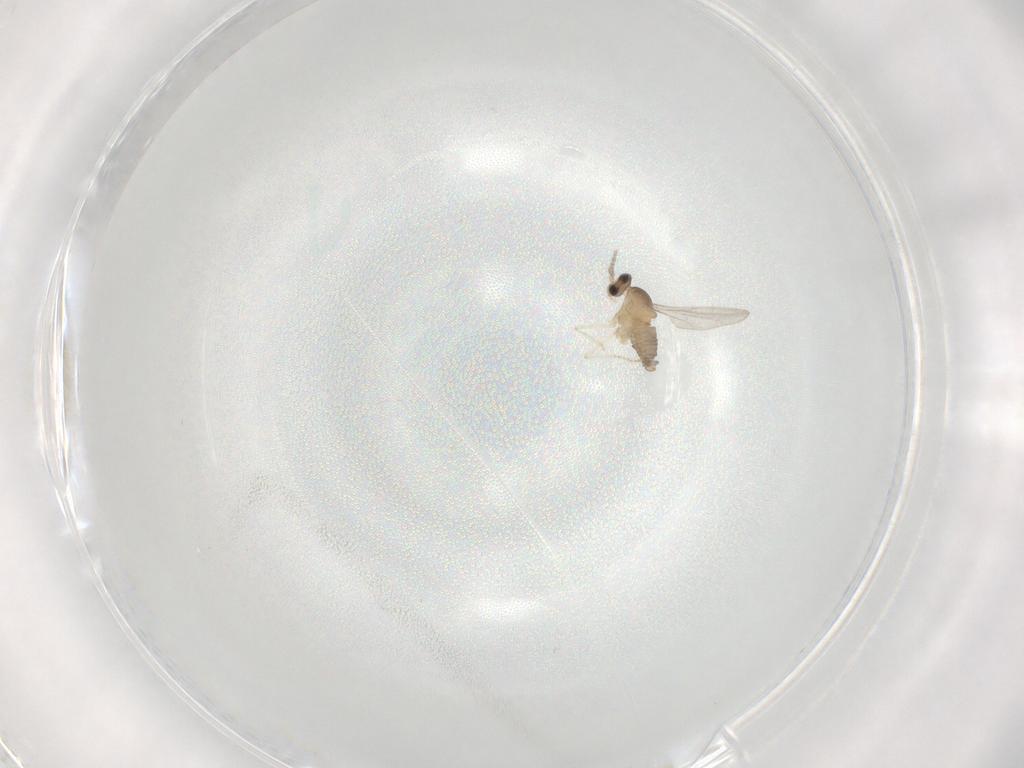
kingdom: Animalia
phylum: Arthropoda
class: Insecta
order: Diptera
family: Cecidomyiidae
